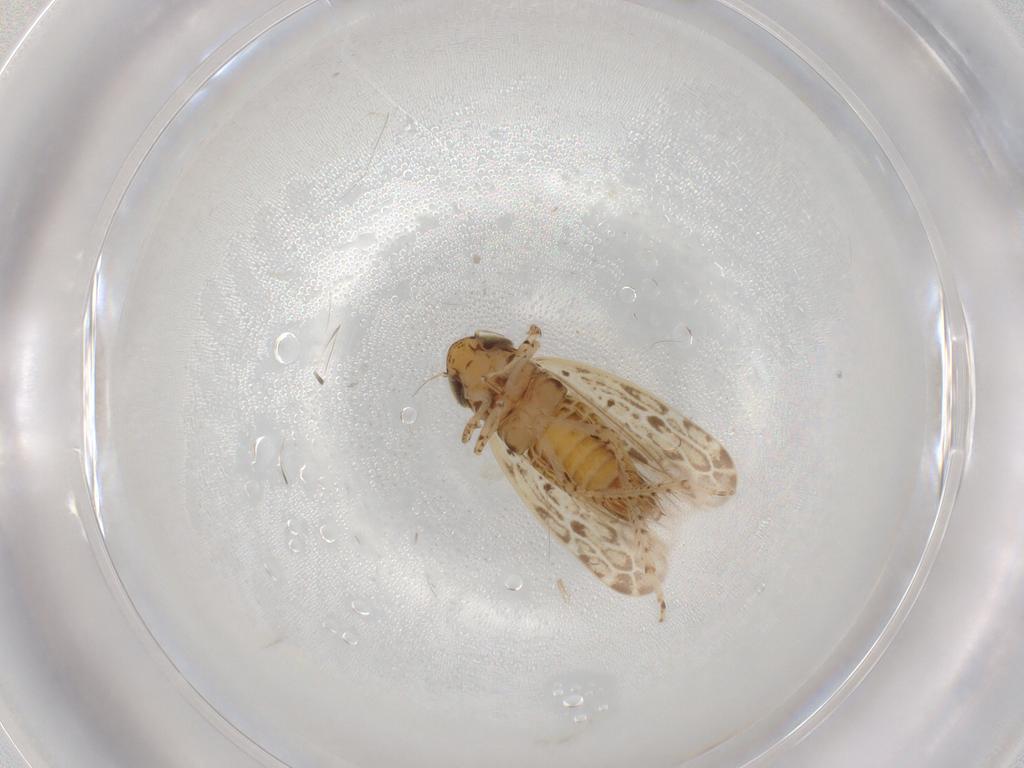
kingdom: Animalia
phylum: Arthropoda
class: Insecta
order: Hemiptera
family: Cicadellidae
